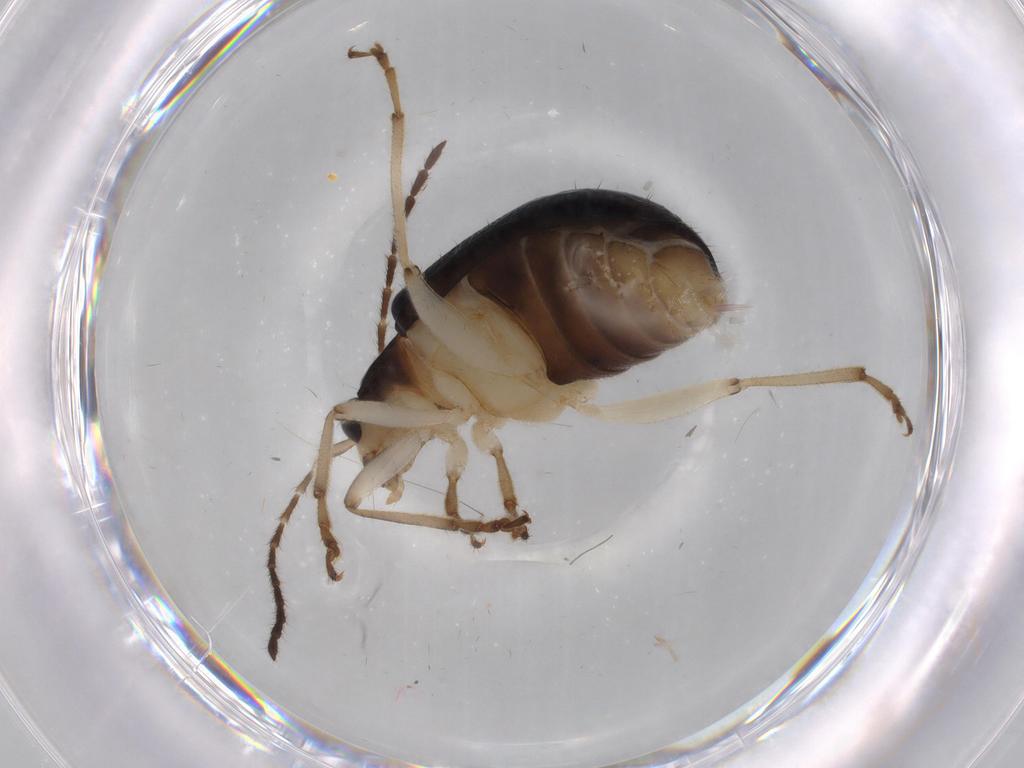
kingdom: Animalia
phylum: Arthropoda
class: Insecta
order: Coleoptera
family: Chrysomelidae
